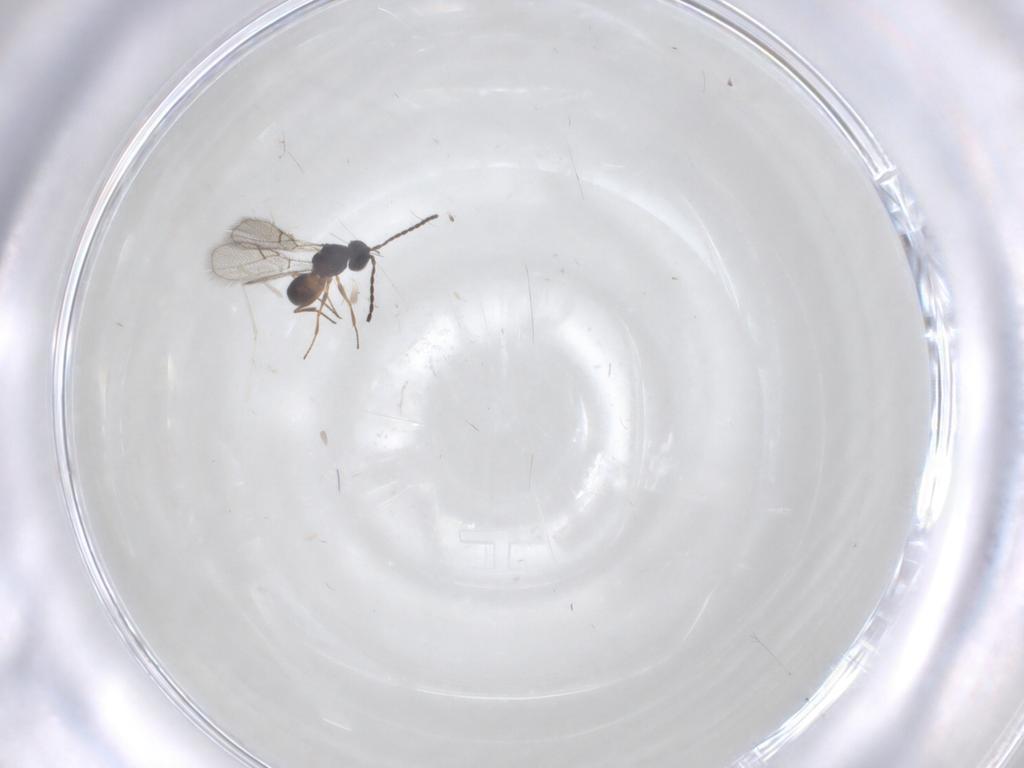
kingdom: Animalia
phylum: Arthropoda
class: Insecta
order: Hymenoptera
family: Figitidae
